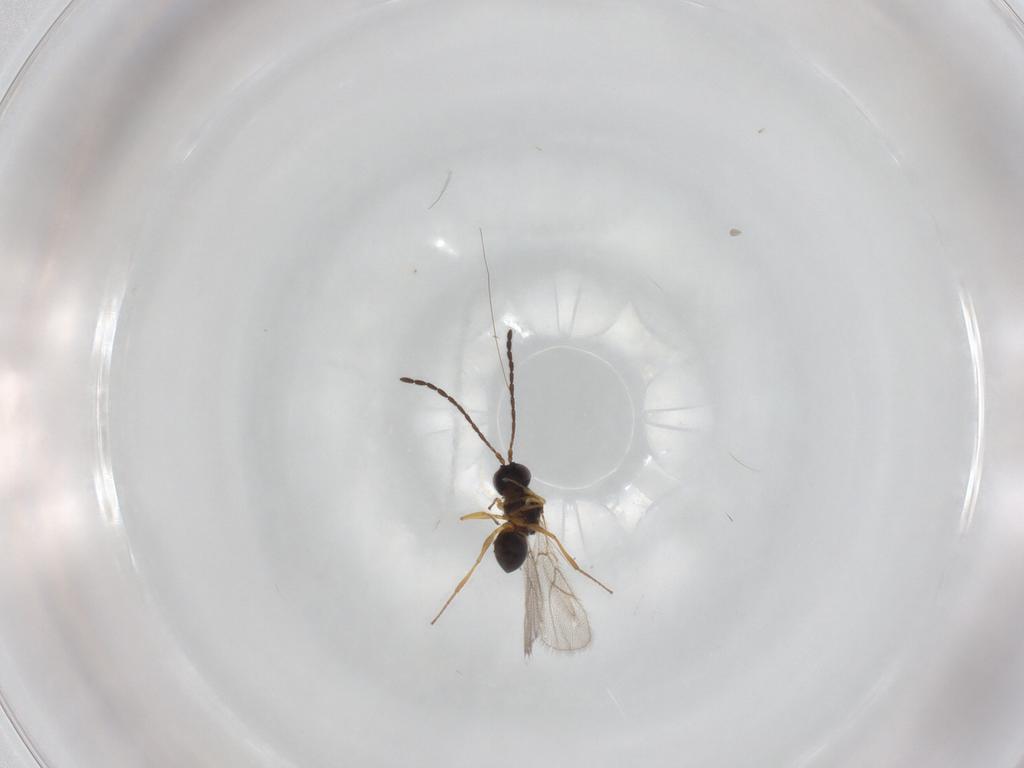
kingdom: Animalia
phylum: Arthropoda
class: Insecta
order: Hymenoptera
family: Figitidae
